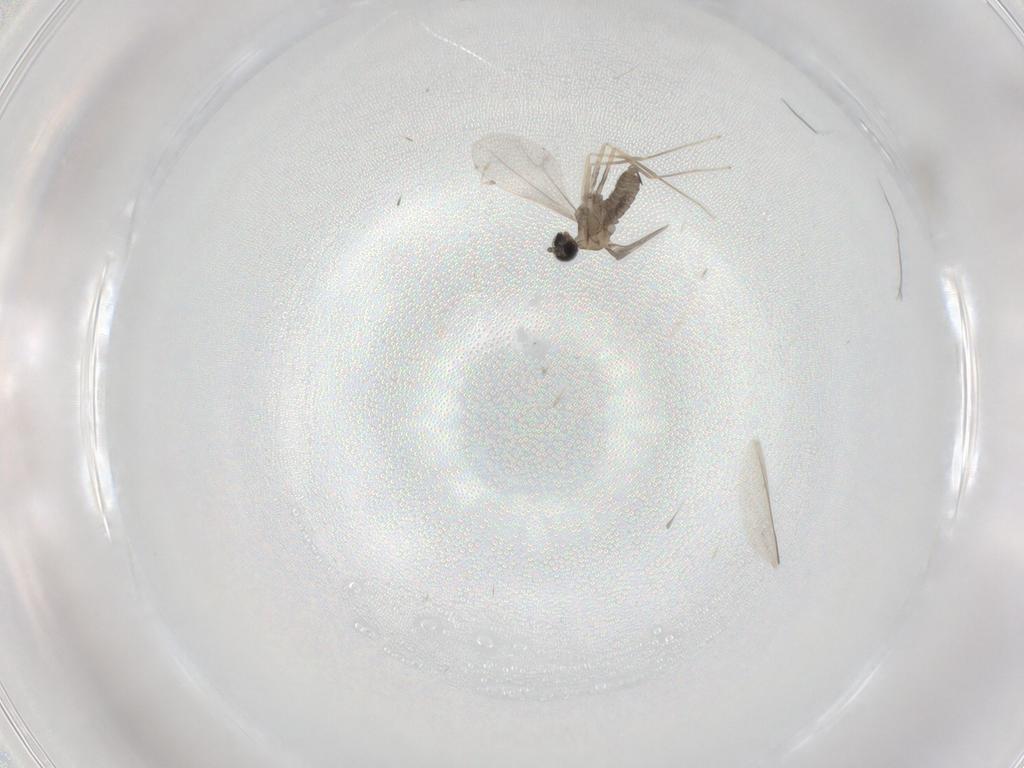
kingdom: Animalia
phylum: Arthropoda
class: Insecta
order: Diptera
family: Cecidomyiidae
